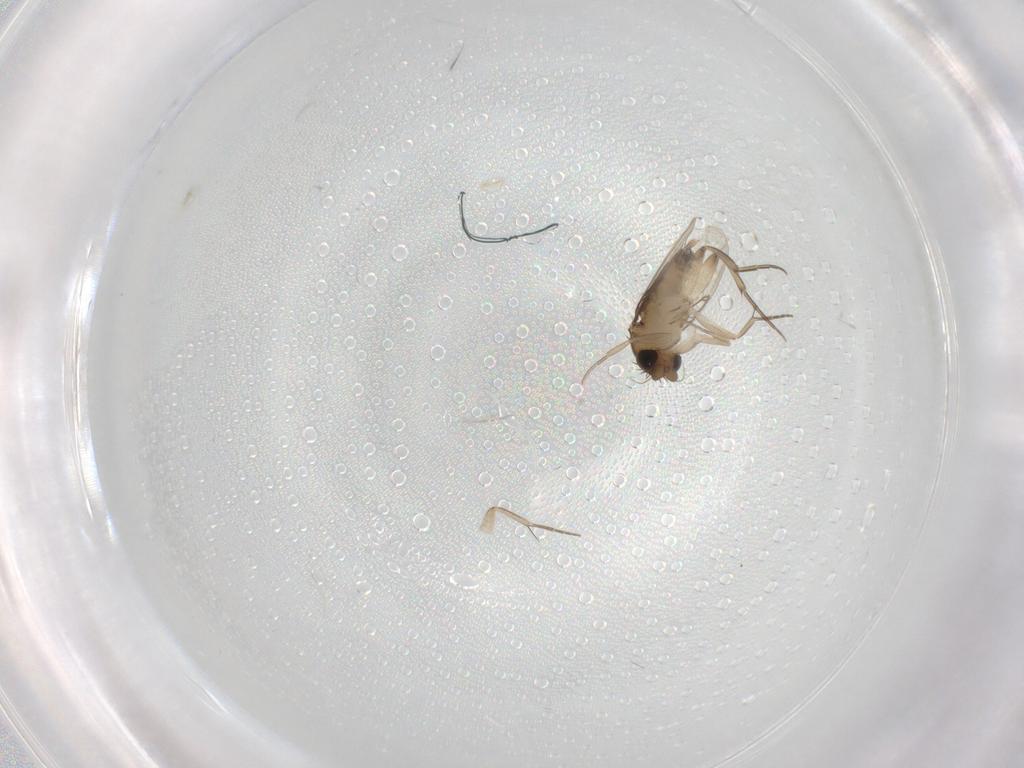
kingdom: Animalia
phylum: Arthropoda
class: Insecta
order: Diptera
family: Phoridae
